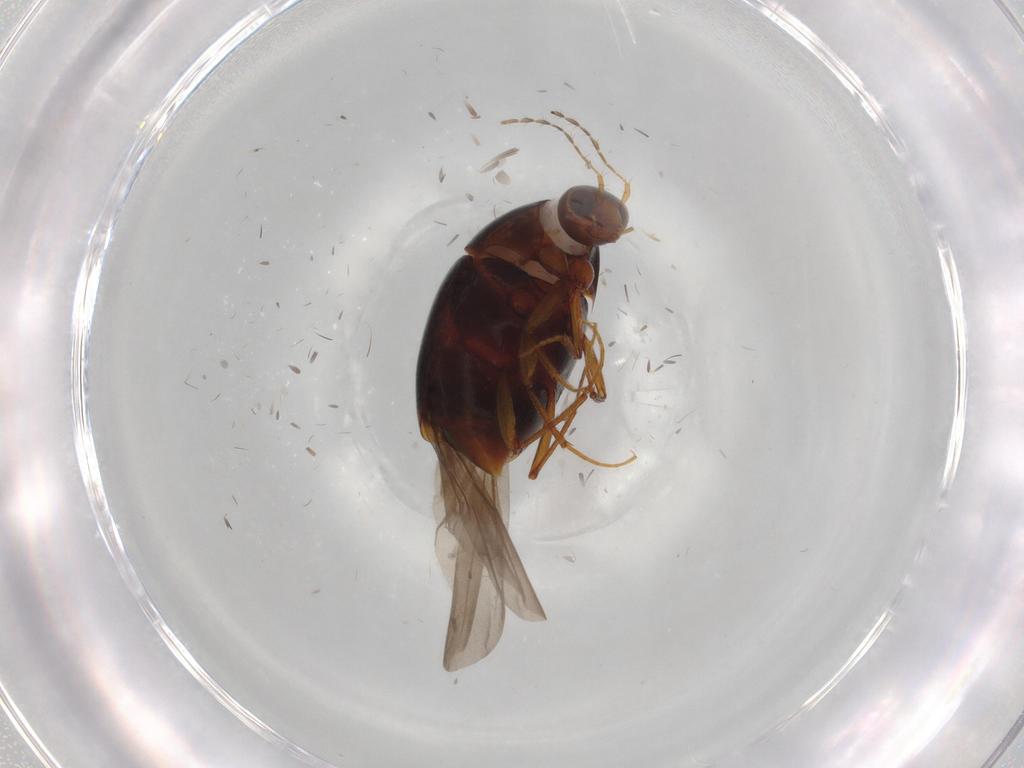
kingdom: Animalia
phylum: Arthropoda
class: Insecta
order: Coleoptera
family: Staphylinidae
